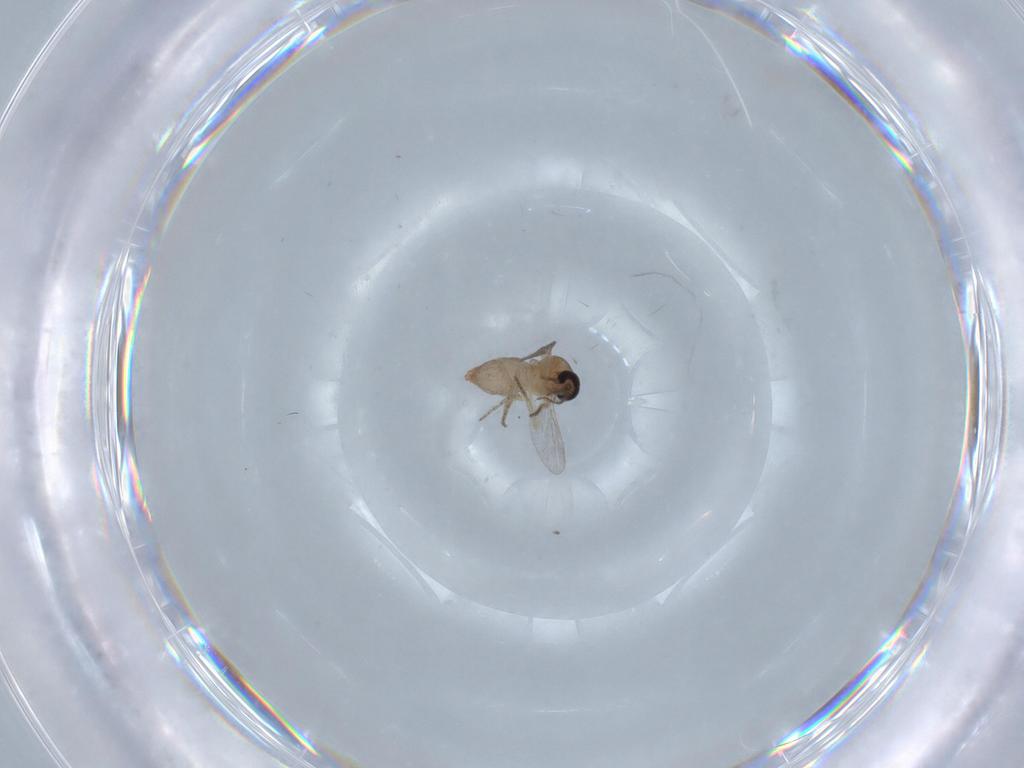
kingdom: Animalia
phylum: Arthropoda
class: Insecta
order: Diptera
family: Ceratopogonidae
